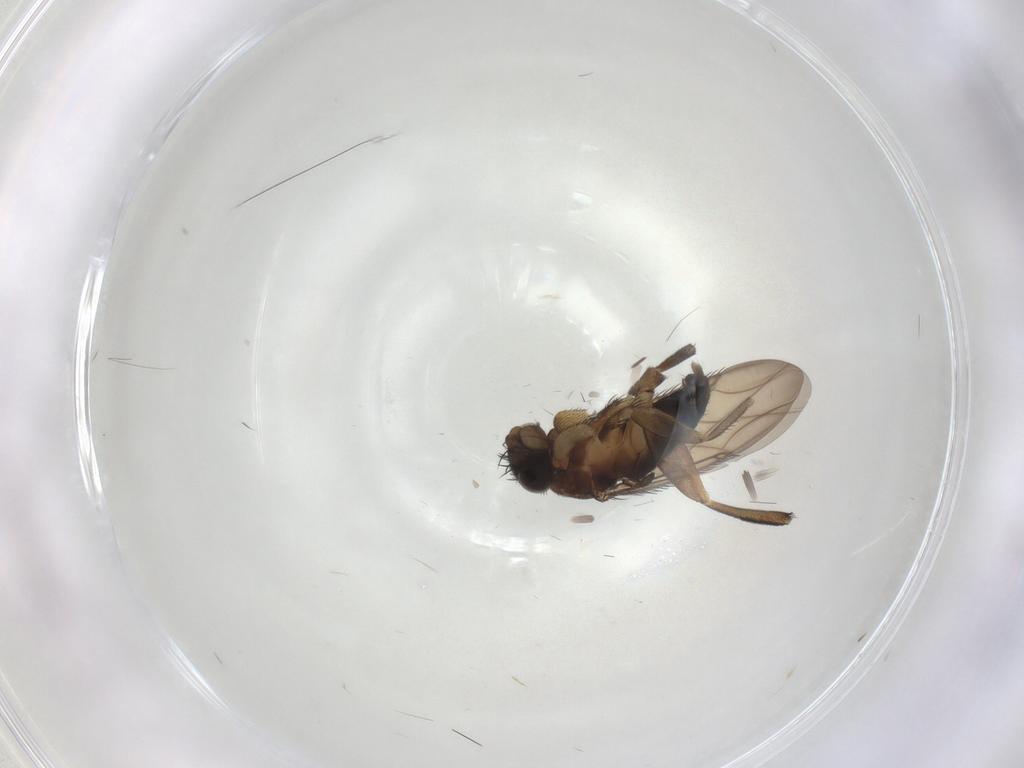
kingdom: Animalia
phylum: Arthropoda
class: Insecta
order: Diptera
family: Phoridae
